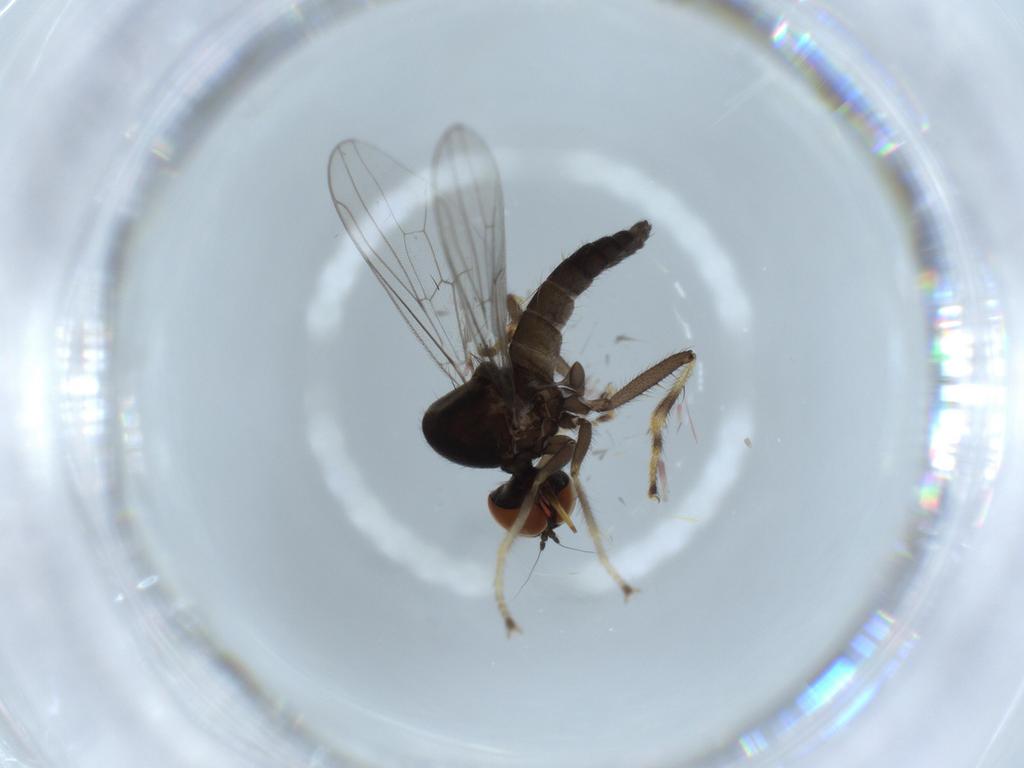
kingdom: Animalia
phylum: Arthropoda
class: Insecta
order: Diptera
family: Hybotidae
